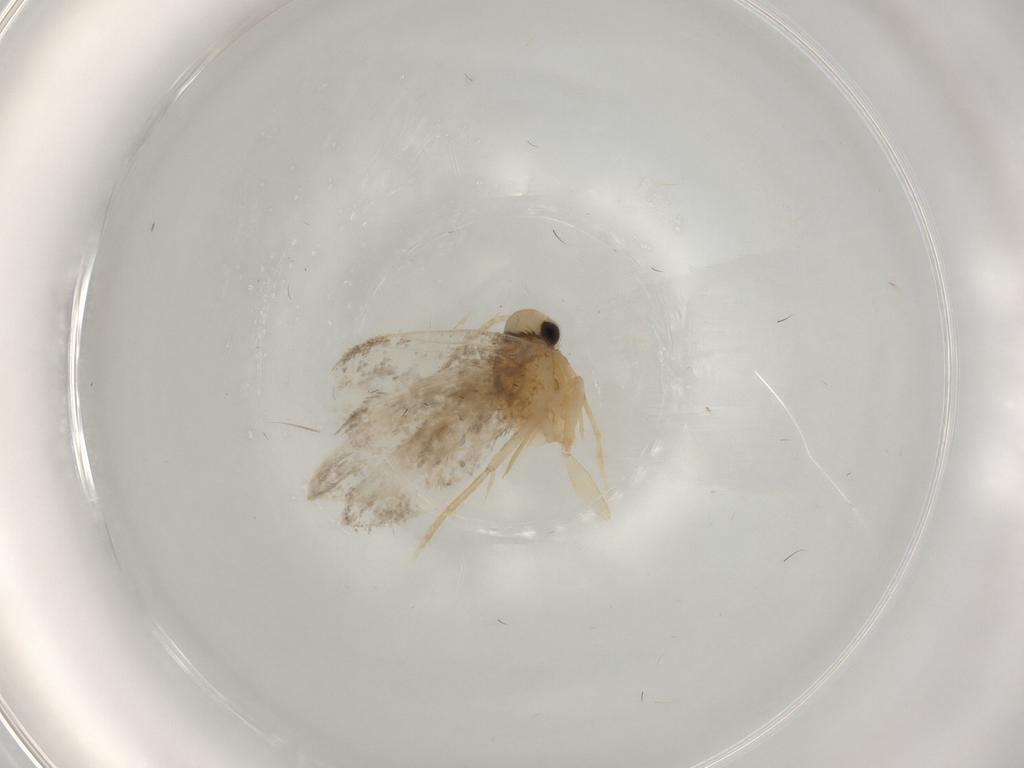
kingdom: Animalia
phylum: Arthropoda
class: Insecta
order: Lepidoptera
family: Psychidae
